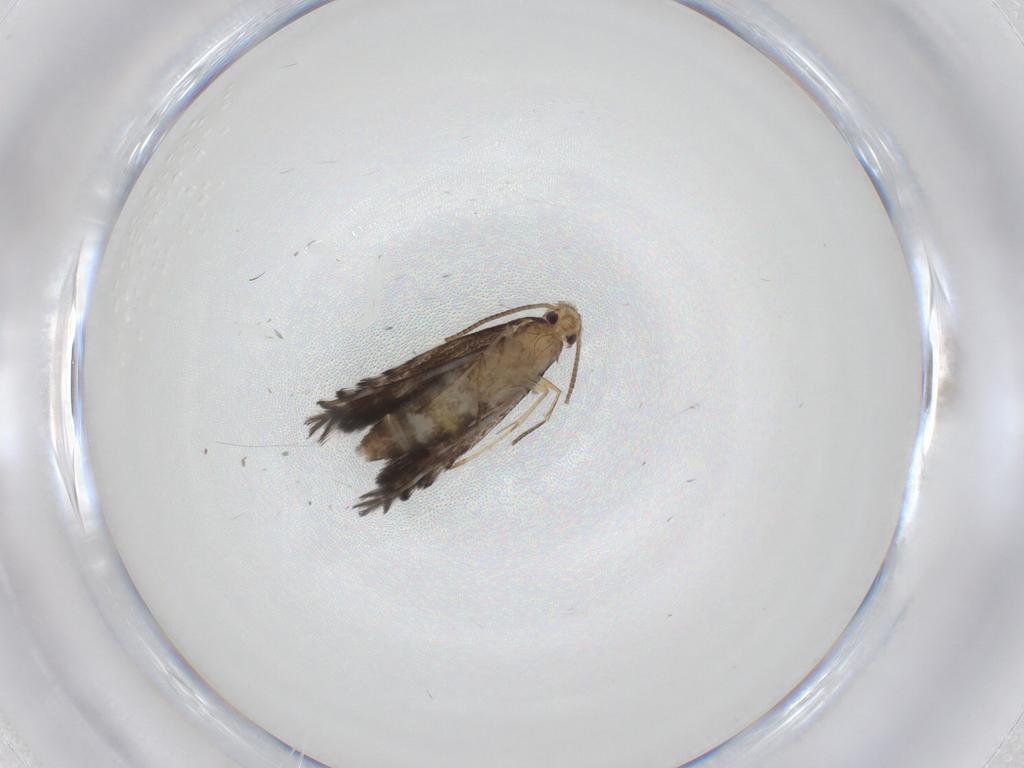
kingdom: Animalia
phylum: Arthropoda
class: Insecta
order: Lepidoptera
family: Gracillariidae
